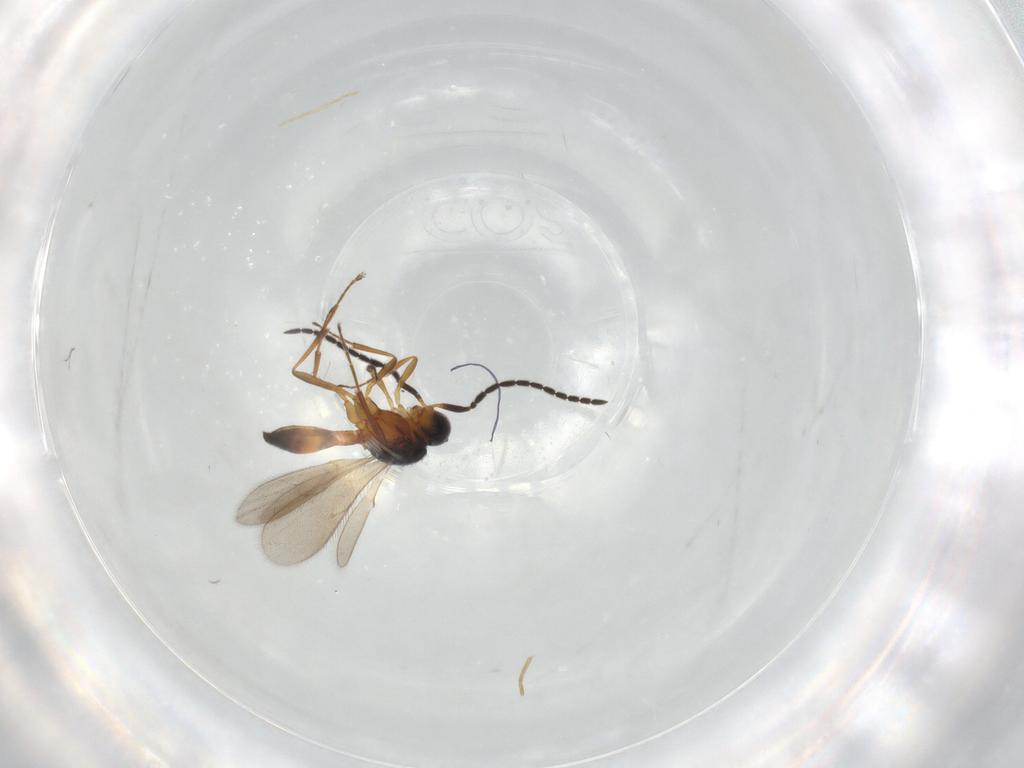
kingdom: Animalia
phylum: Arthropoda
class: Insecta
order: Hymenoptera
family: Scelionidae
